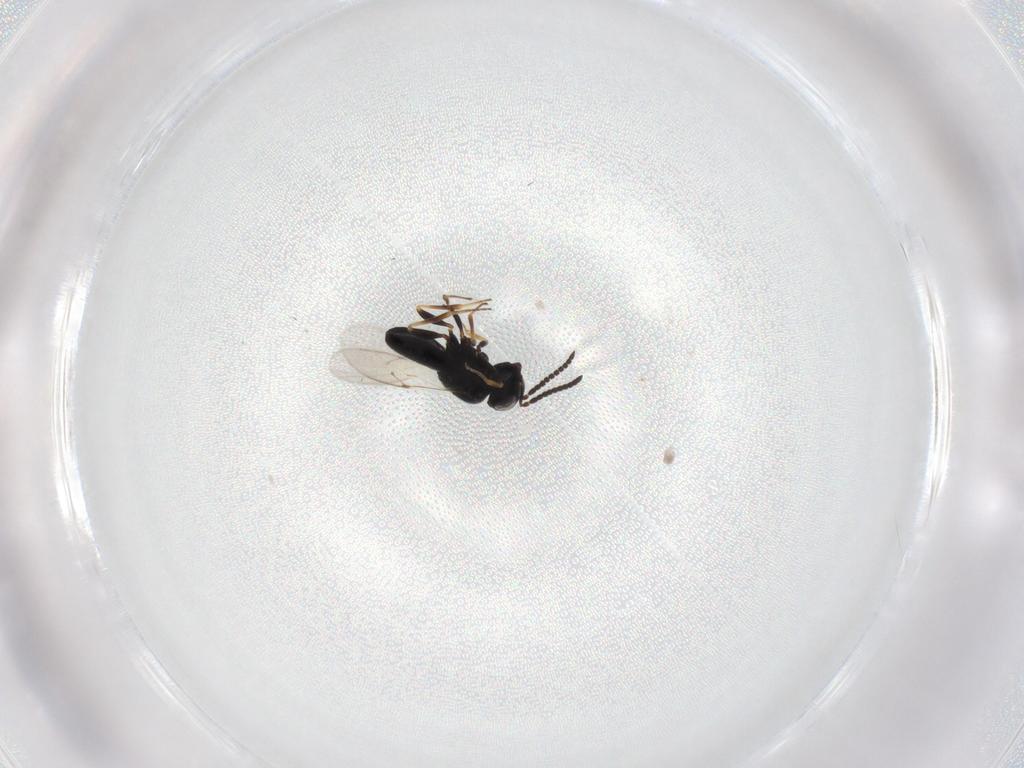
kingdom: Animalia
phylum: Arthropoda
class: Insecta
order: Hymenoptera
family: Scelionidae
